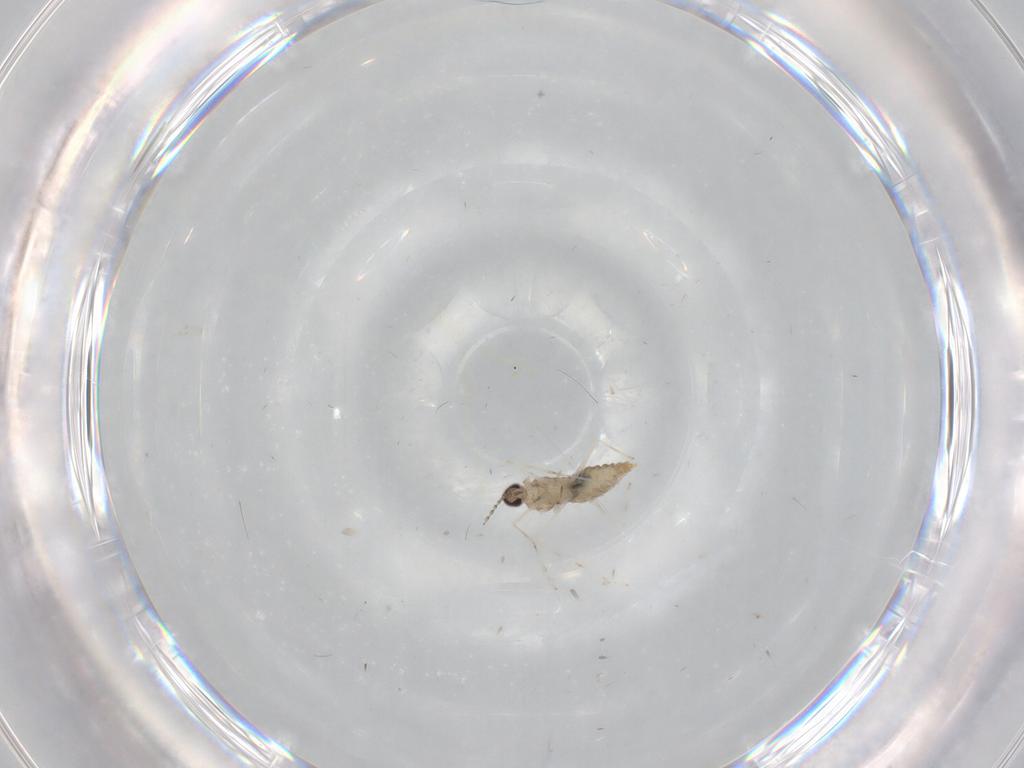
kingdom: Animalia
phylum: Arthropoda
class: Insecta
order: Diptera
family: Cecidomyiidae
